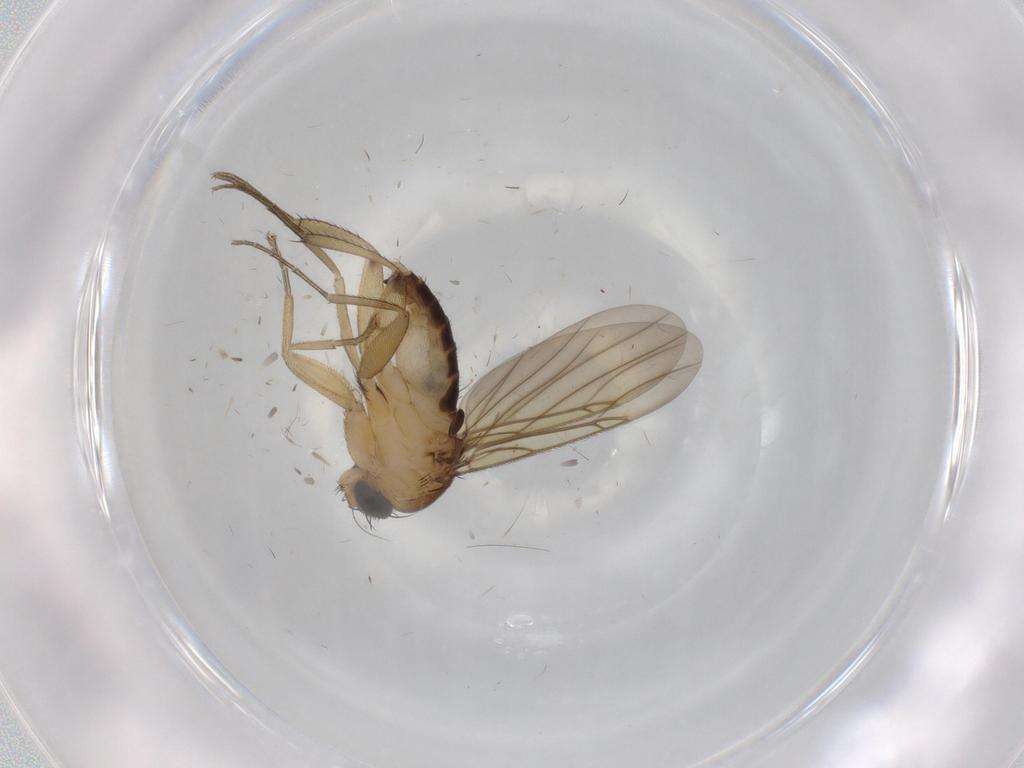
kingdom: Animalia
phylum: Arthropoda
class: Insecta
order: Diptera
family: Phoridae
